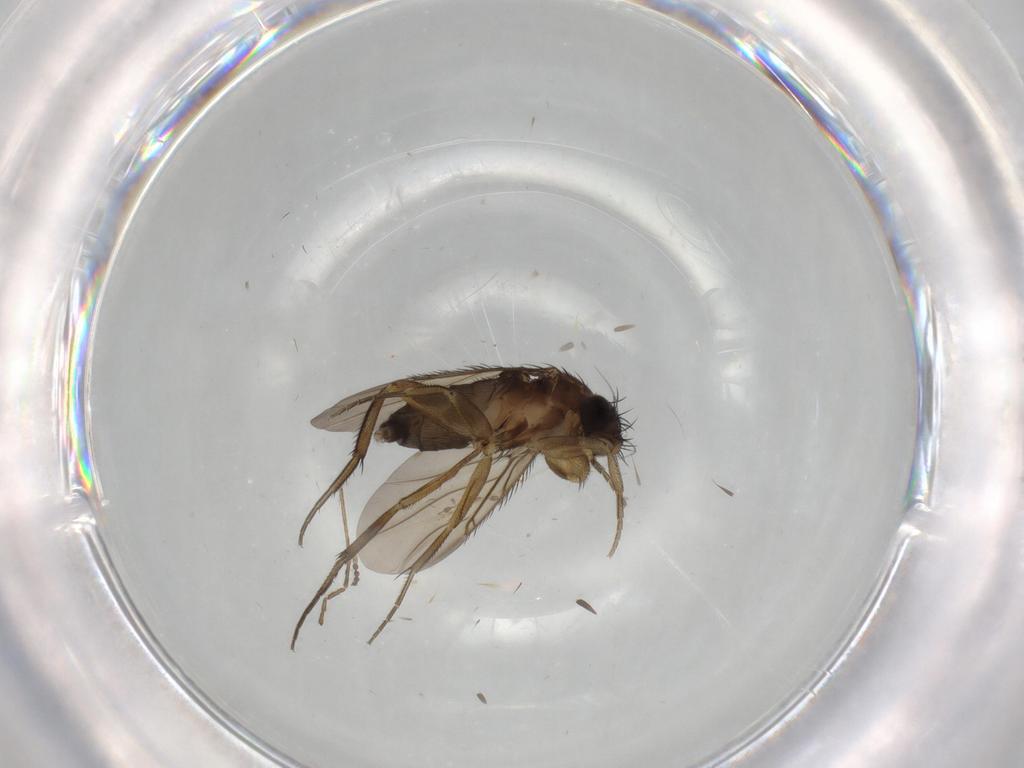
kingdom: Animalia
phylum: Arthropoda
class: Insecta
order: Diptera
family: Phoridae
